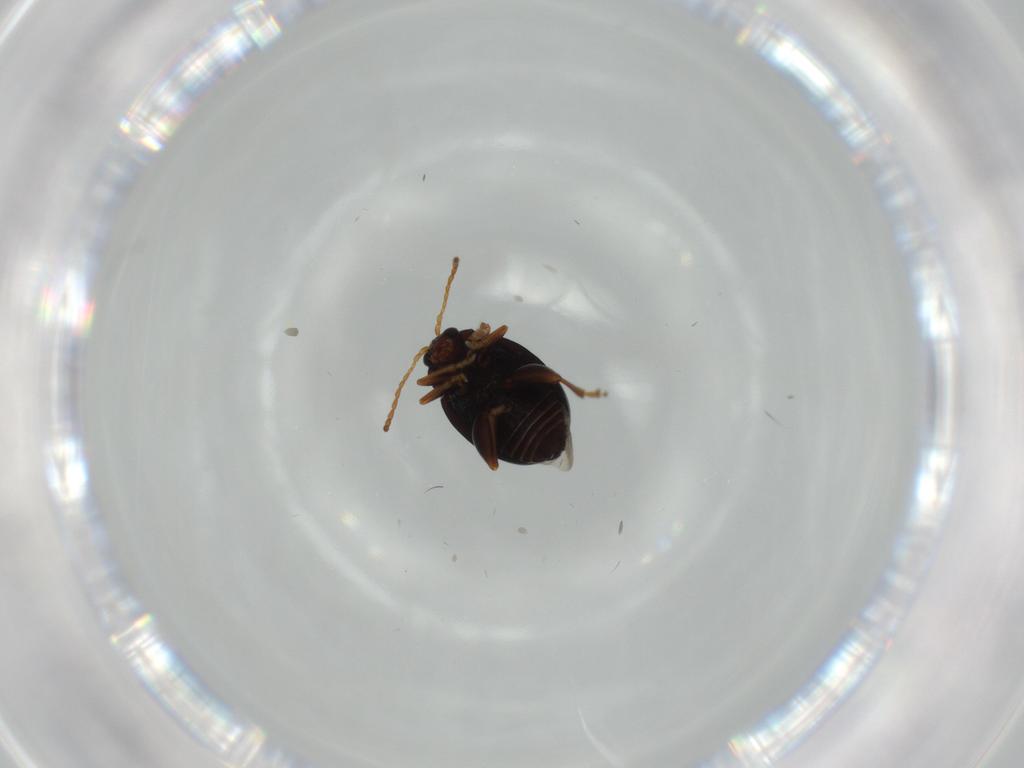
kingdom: Animalia
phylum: Arthropoda
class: Insecta
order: Coleoptera
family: Chrysomelidae
